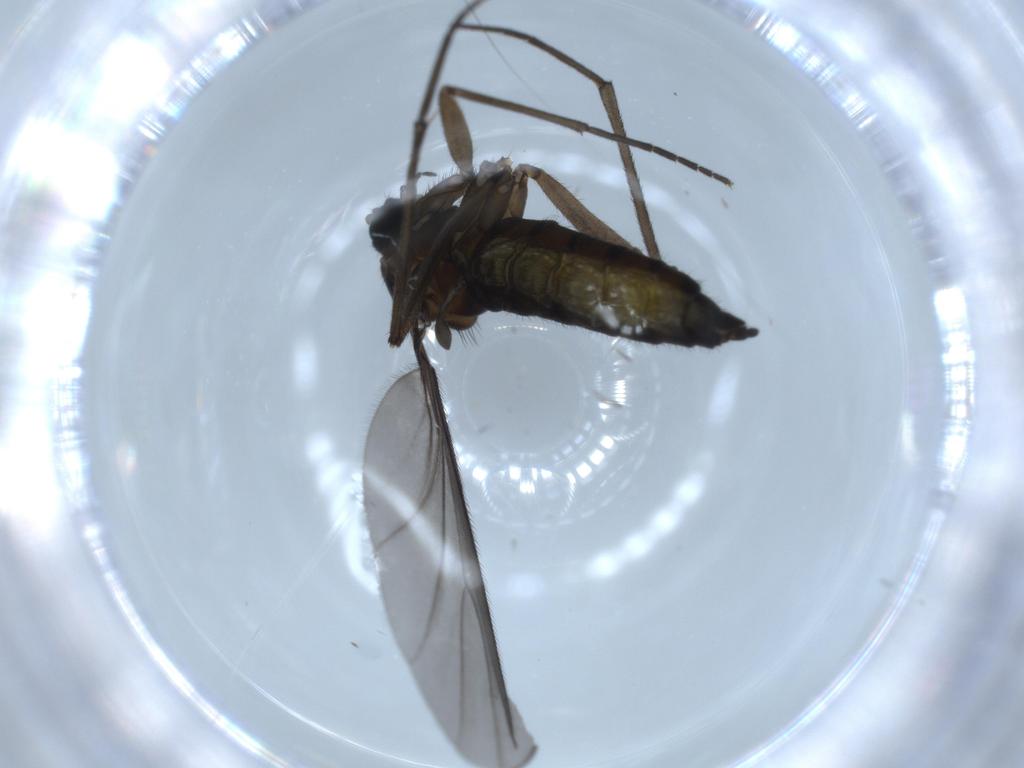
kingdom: Animalia
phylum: Arthropoda
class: Insecta
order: Diptera
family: Sciaridae
